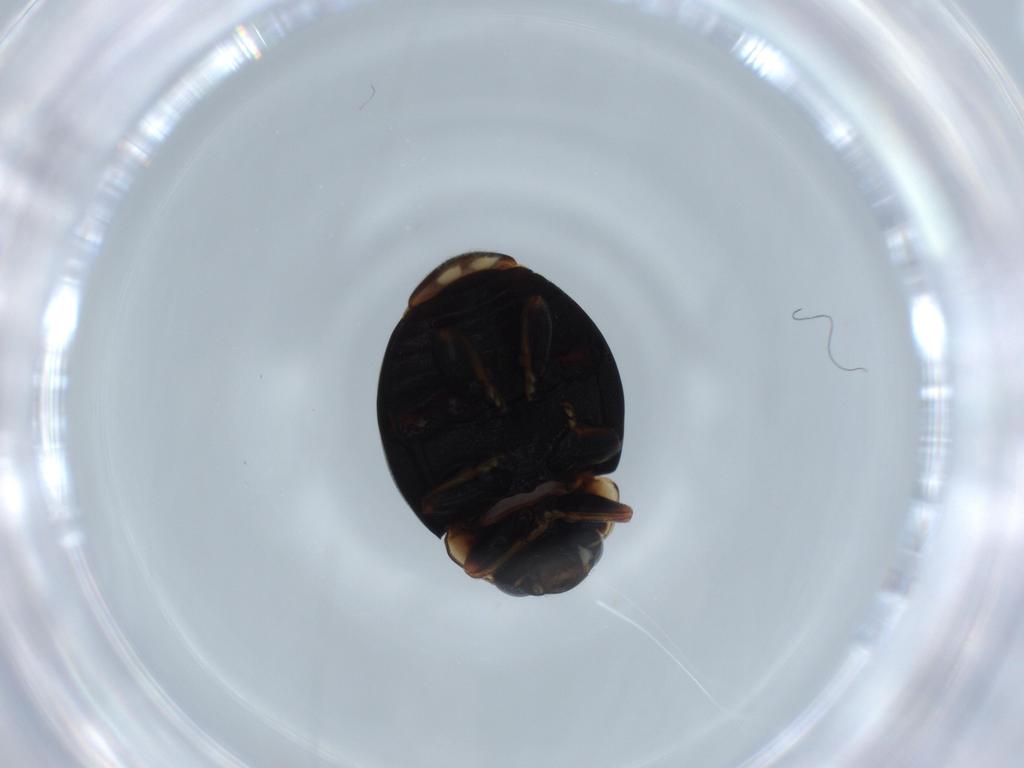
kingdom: Animalia
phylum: Arthropoda
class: Insecta
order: Coleoptera
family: Coccinellidae
